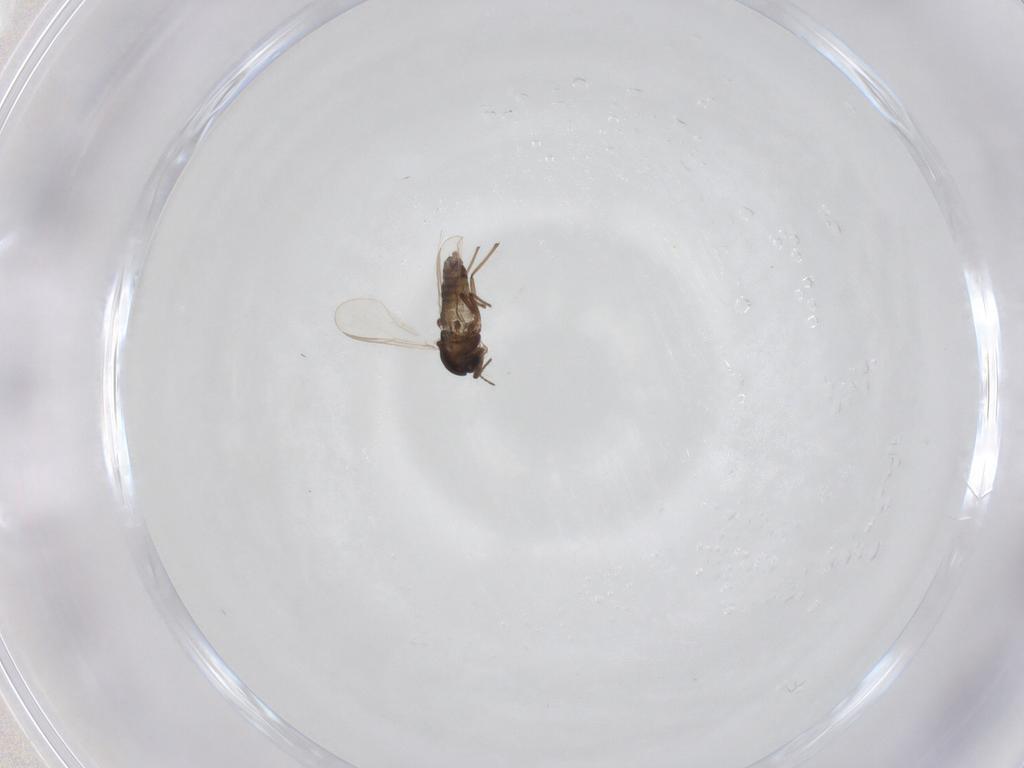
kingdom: Animalia
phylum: Arthropoda
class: Insecta
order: Diptera
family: Chironomidae
